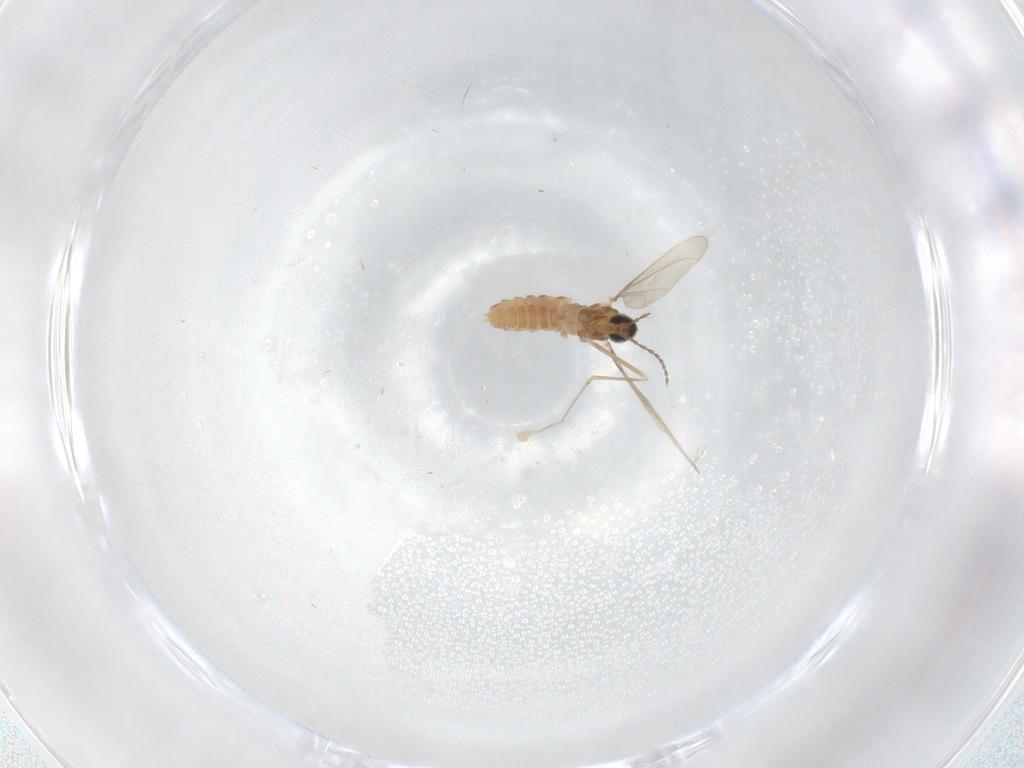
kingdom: Animalia
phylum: Arthropoda
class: Insecta
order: Diptera
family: Cecidomyiidae
